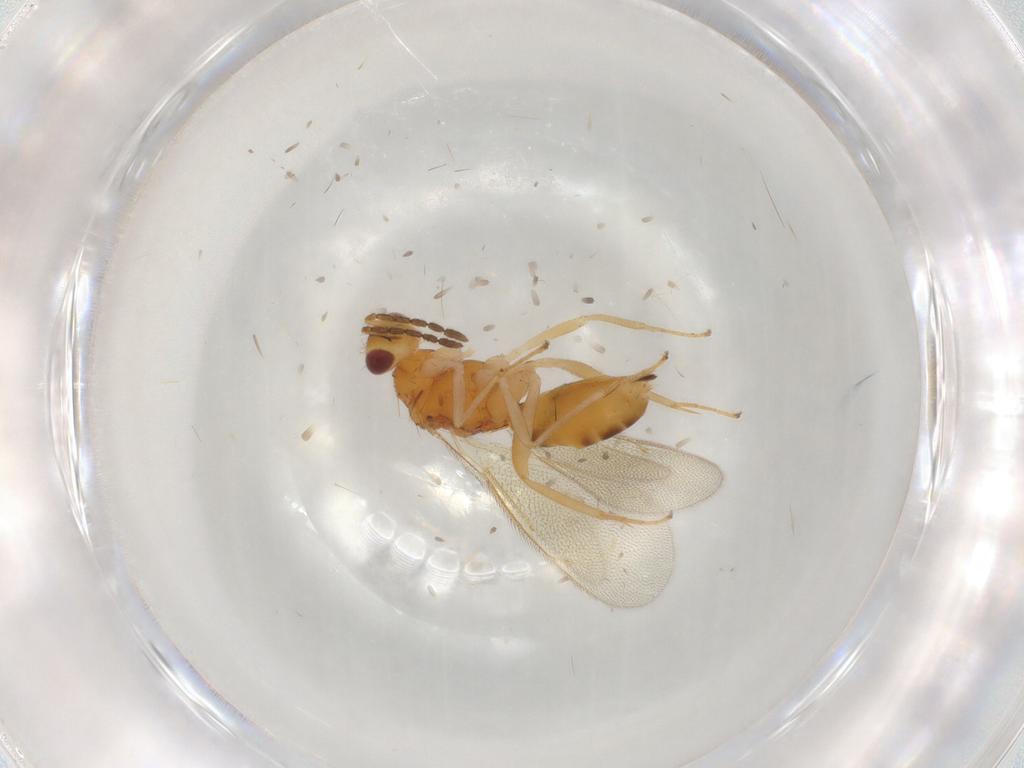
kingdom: Animalia
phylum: Arthropoda
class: Insecta
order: Hymenoptera
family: Eulophidae
